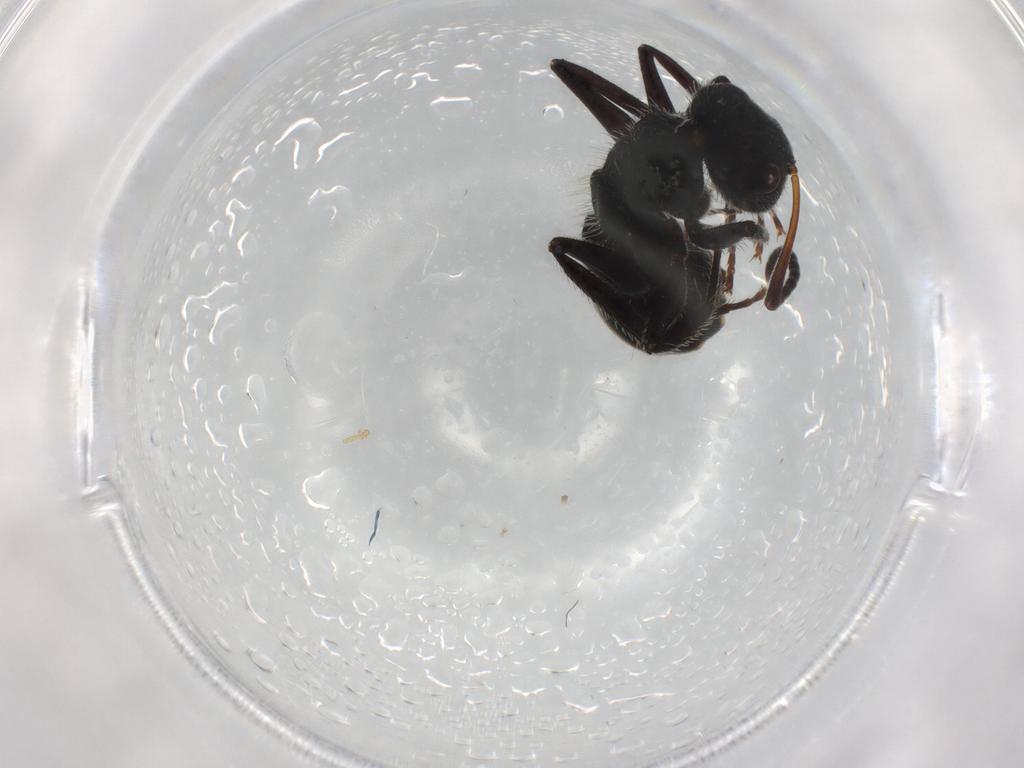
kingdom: Animalia
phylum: Arthropoda
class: Insecta
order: Hymenoptera
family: Formicidae
